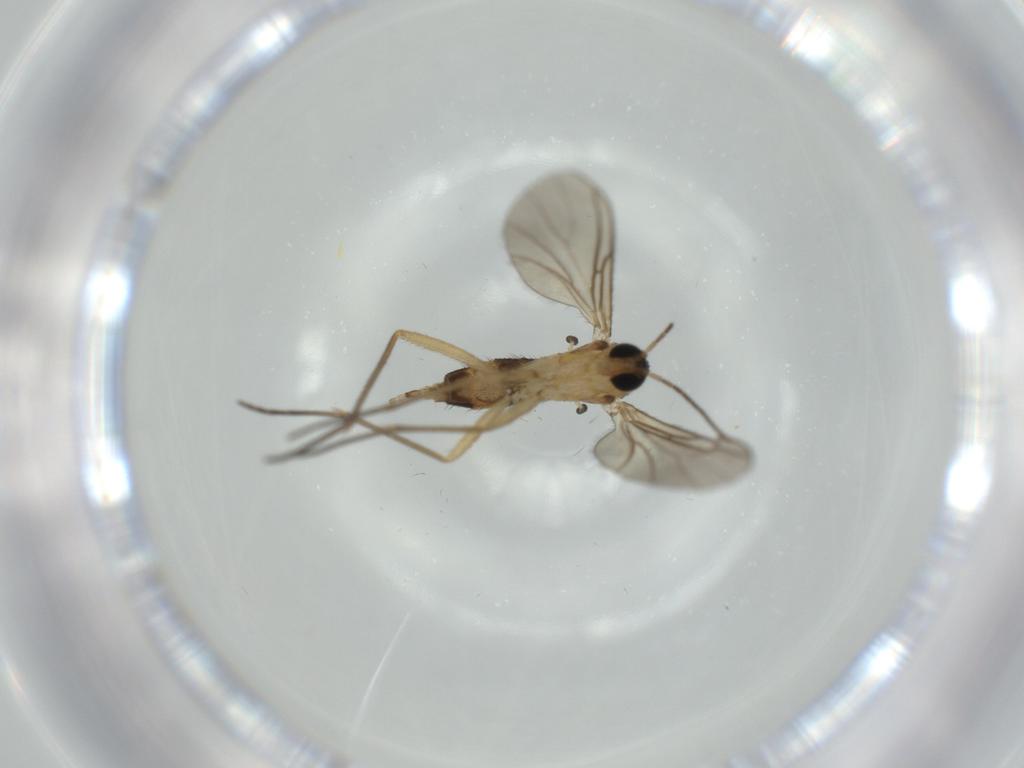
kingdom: Animalia
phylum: Arthropoda
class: Insecta
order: Diptera
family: Sciaridae
